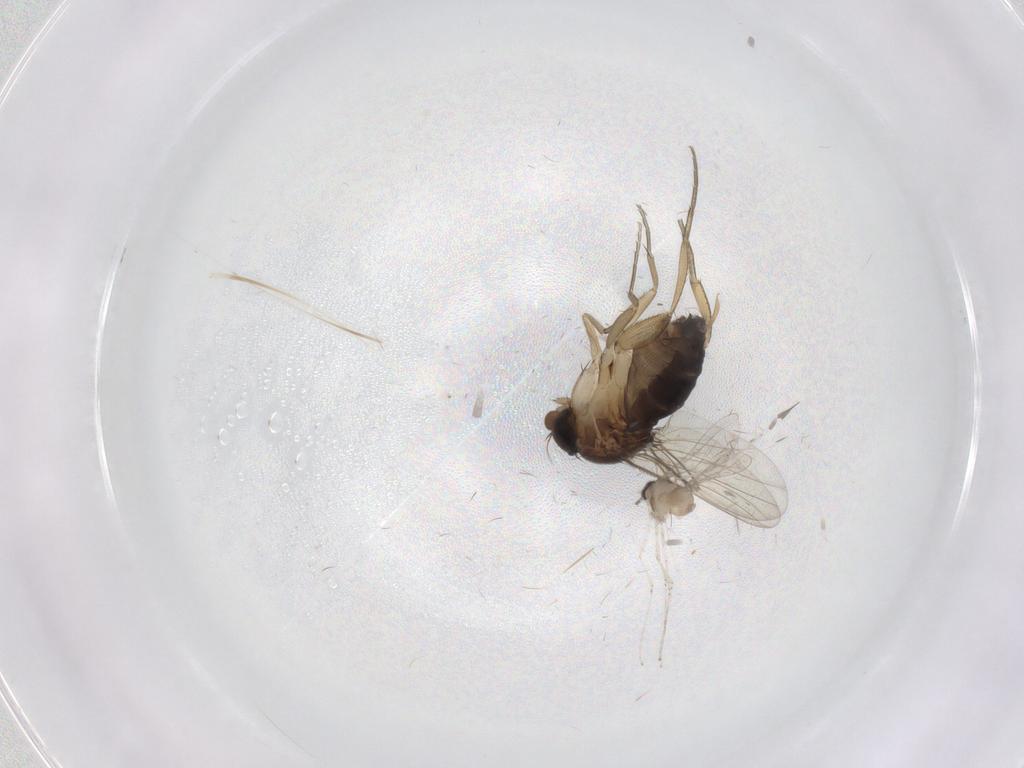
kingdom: Animalia
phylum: Arthropoda
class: Insecta
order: Diptera
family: Cecidomyiidae
